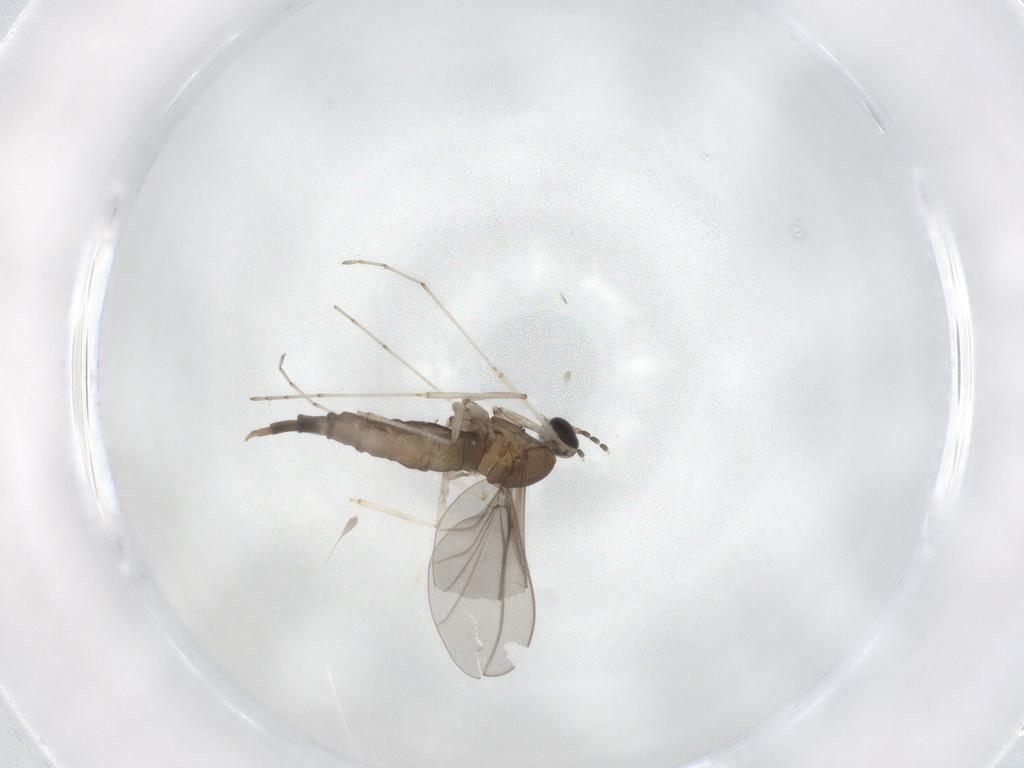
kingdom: Animalia
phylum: Arthropoda
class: Insecta
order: Diptera
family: Cecidomyiidae
